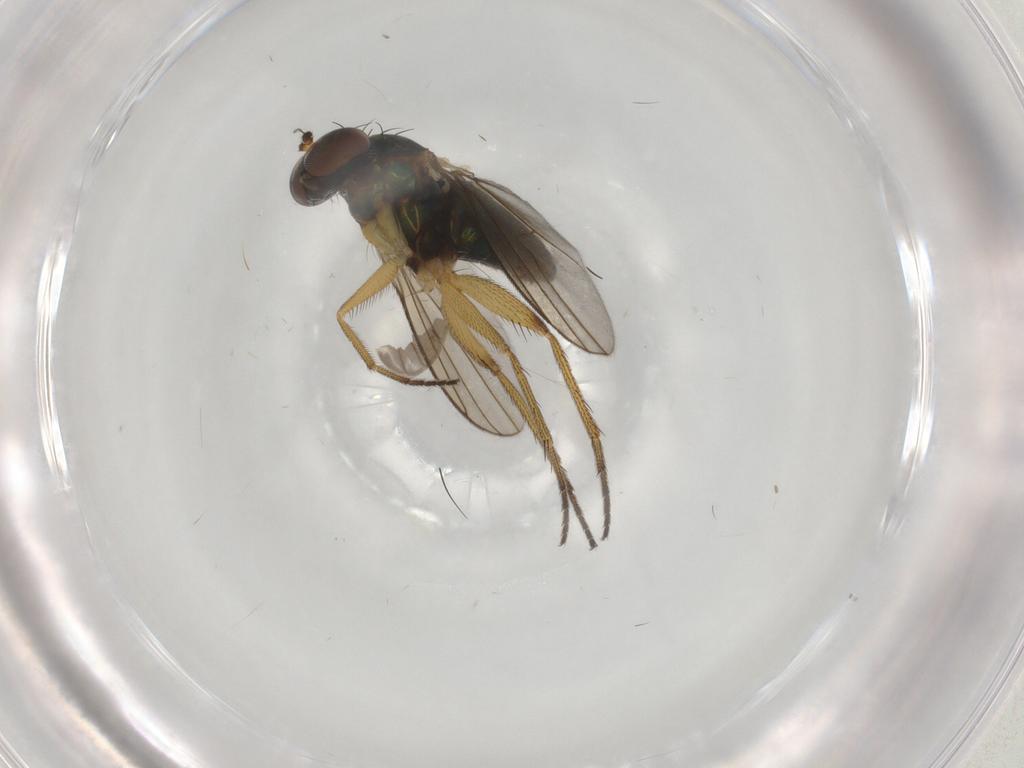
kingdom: Animalia
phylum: Arthropoda
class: Insecta
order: Diptera
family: Dolichopodidae
